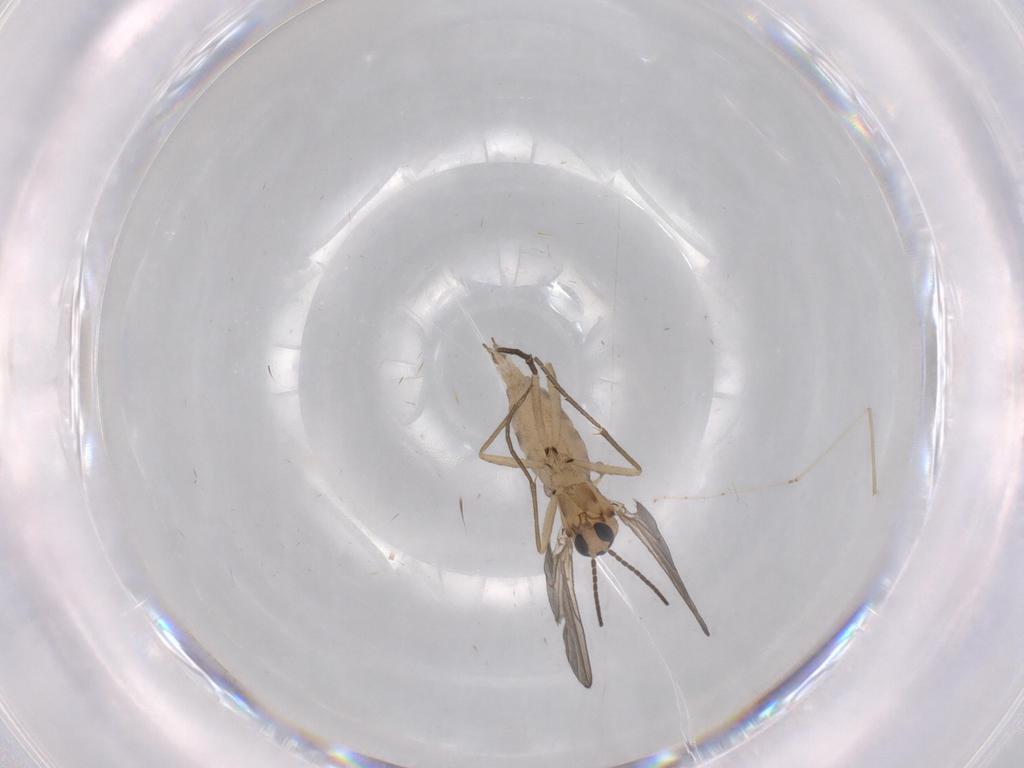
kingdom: Animalia
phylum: Arthropoda
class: Insecta
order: Diptera
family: Sciaridae
